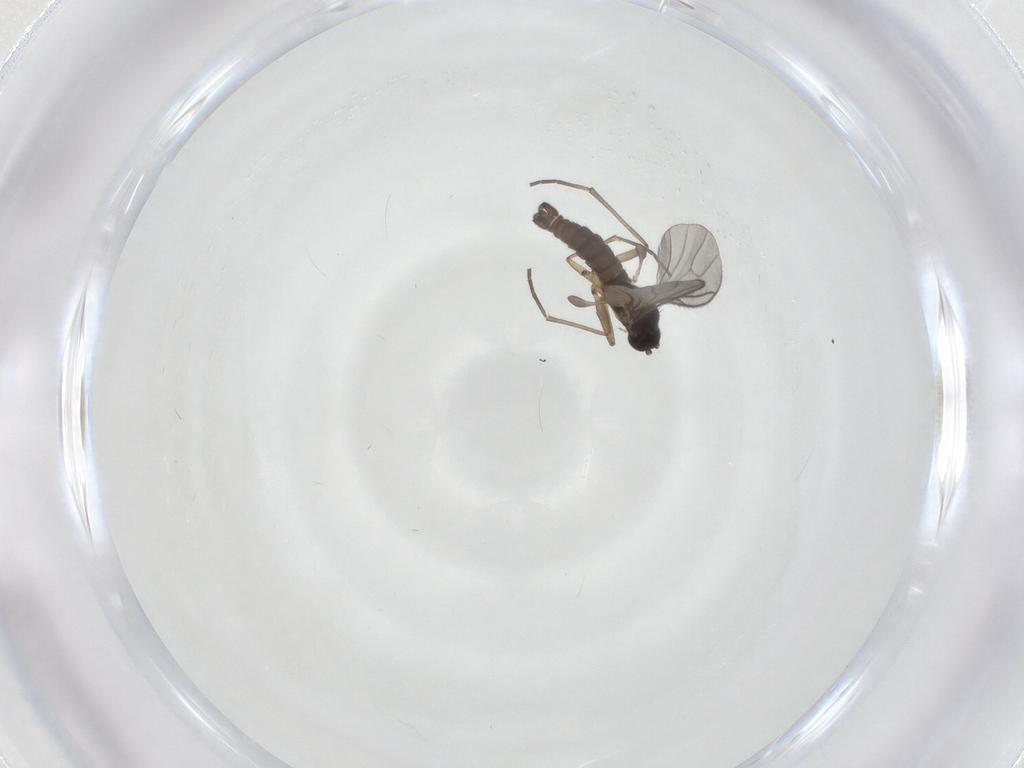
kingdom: Animalia
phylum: Arthropoda
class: Insecta
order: Diptera
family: Sciaridae
